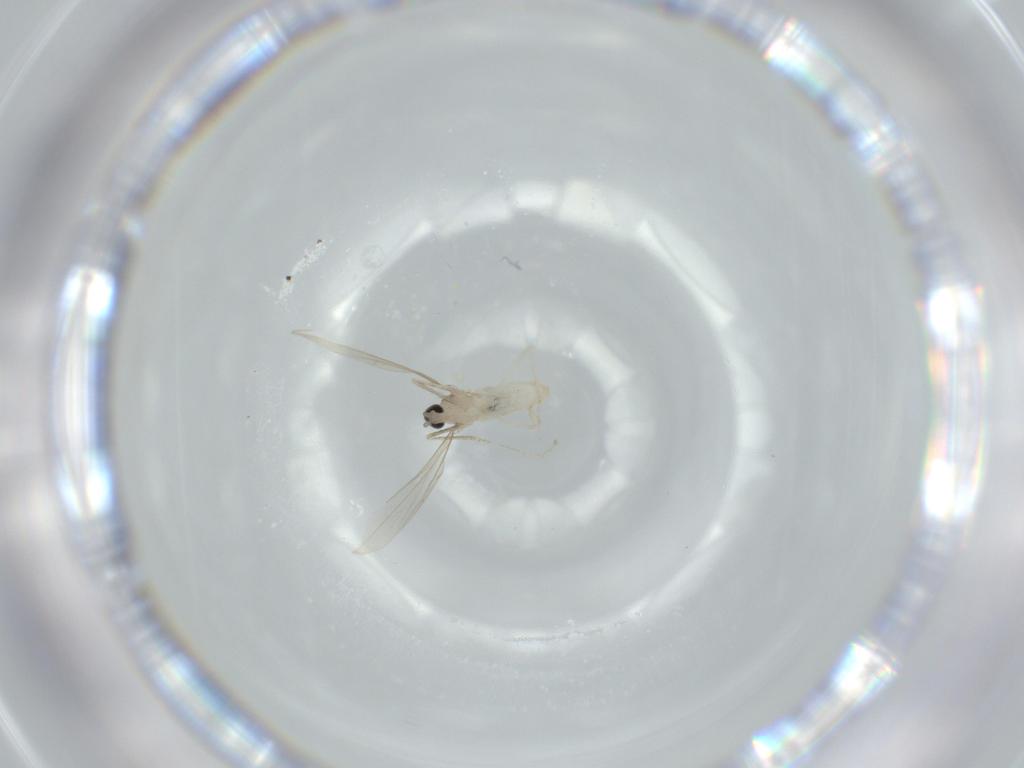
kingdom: Animalia
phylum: Arthropoda
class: Insecta
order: Diptera
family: Cecidomyiidae
